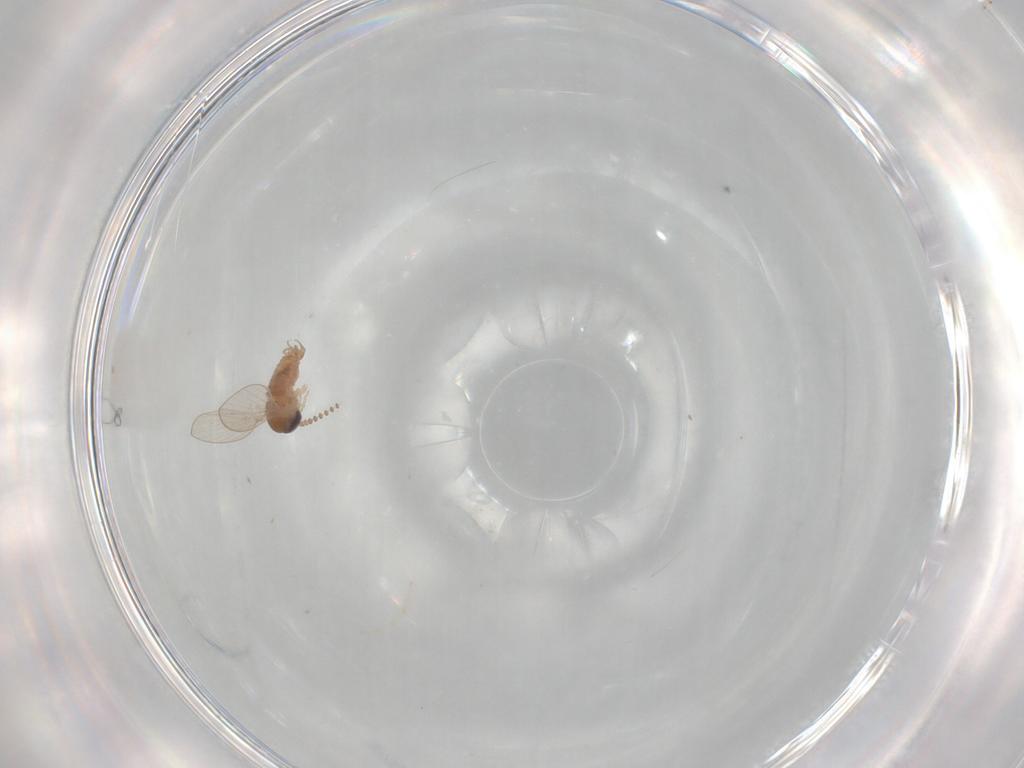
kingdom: Animalia
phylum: Arthropoda
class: Insecta
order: Diptera
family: Psychodidae
